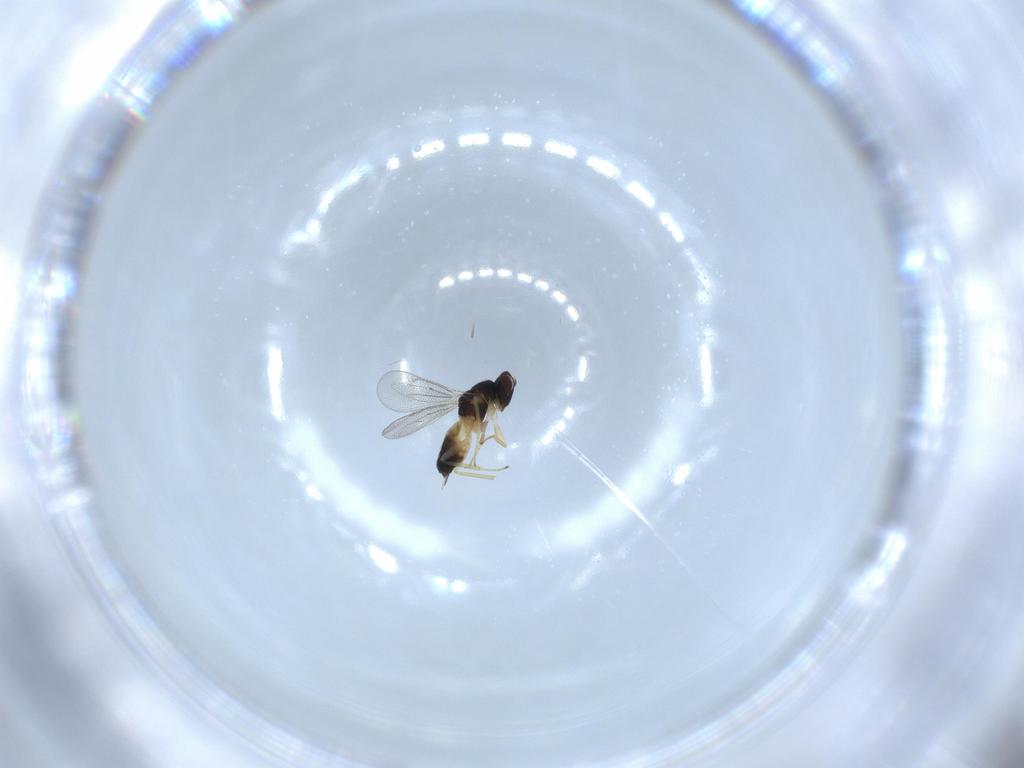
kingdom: Animalia
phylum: Arthropoda
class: Insecta
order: Hymenoptera
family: Eulophidae
